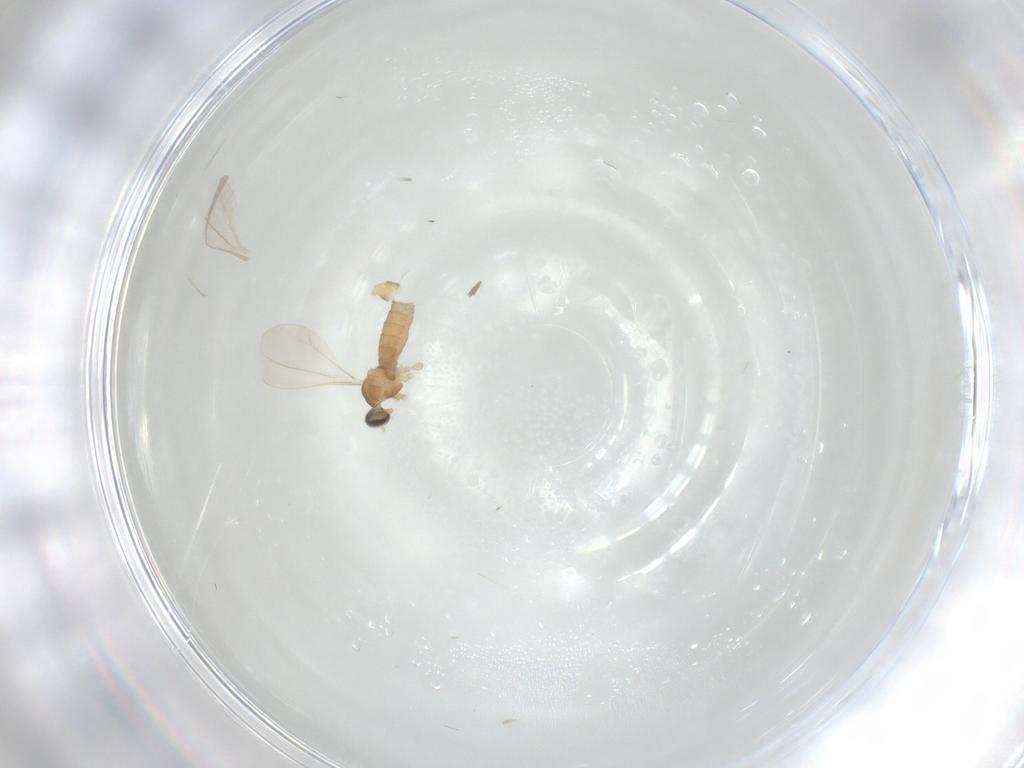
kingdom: Animalia
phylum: Arthropoda
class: Insecta
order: Diptera
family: Cecidomyiidae
